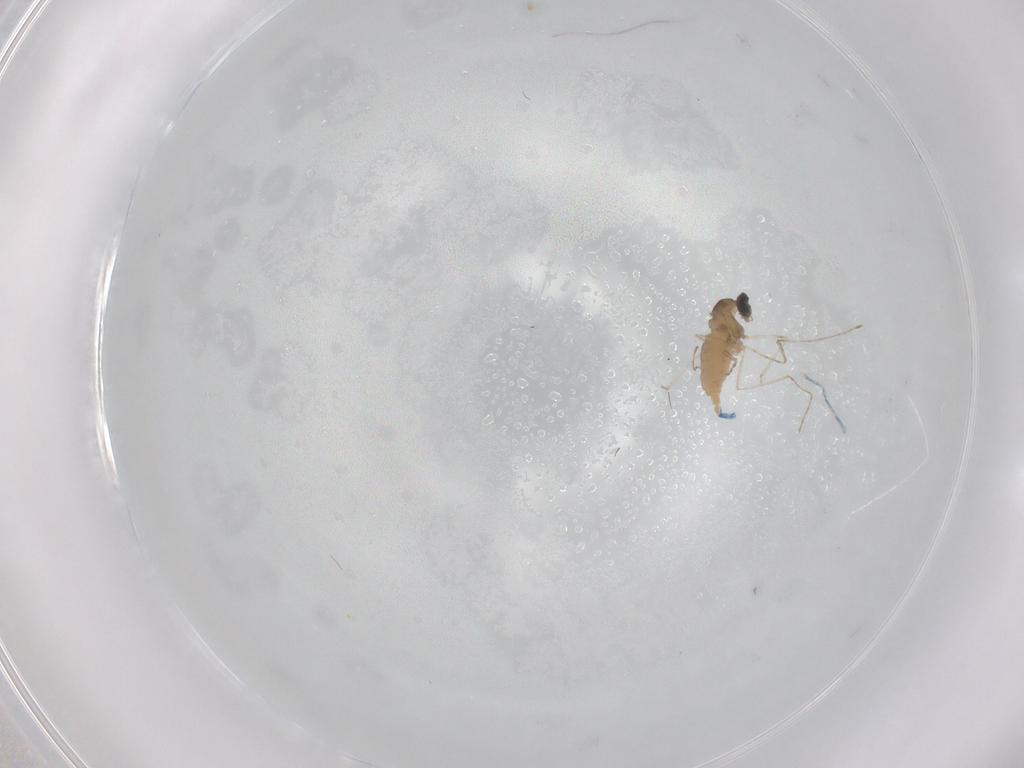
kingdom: Animalia
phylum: Arthropoda
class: Insecta
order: Diptera
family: Cecidomyiidae
